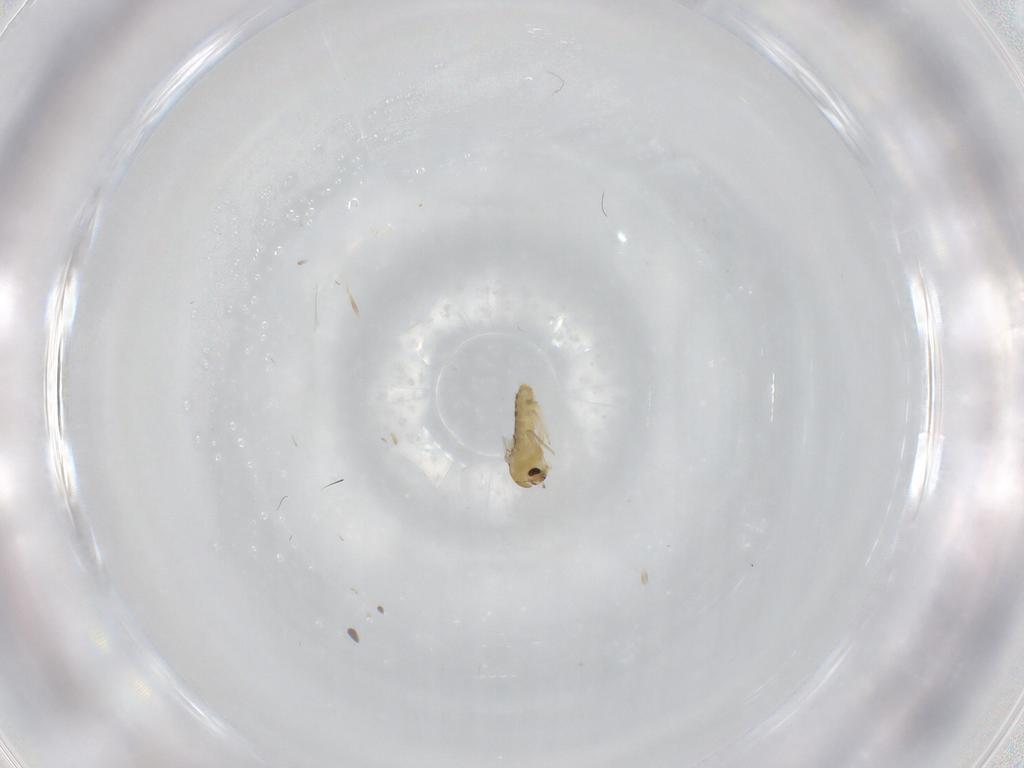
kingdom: Animalia
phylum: Arthropoda
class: Insecta
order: Diptera
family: Chironomidae
